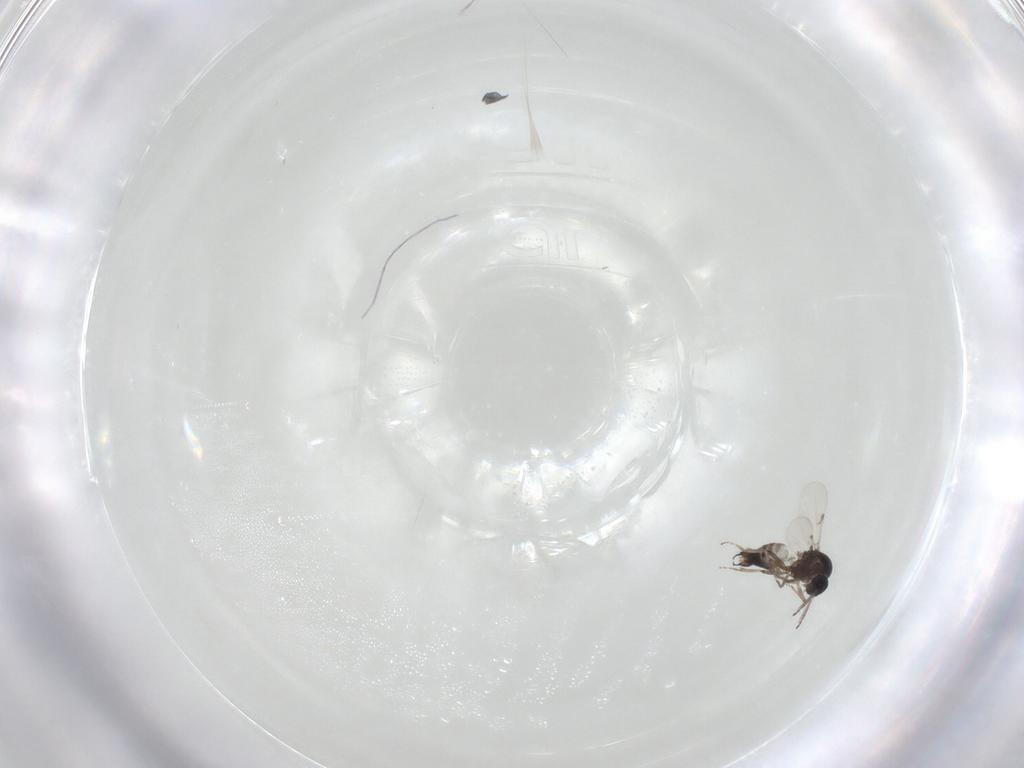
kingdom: Animalia
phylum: Arthropoda
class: Insecta
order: Diptera
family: Ceratopogonidae
